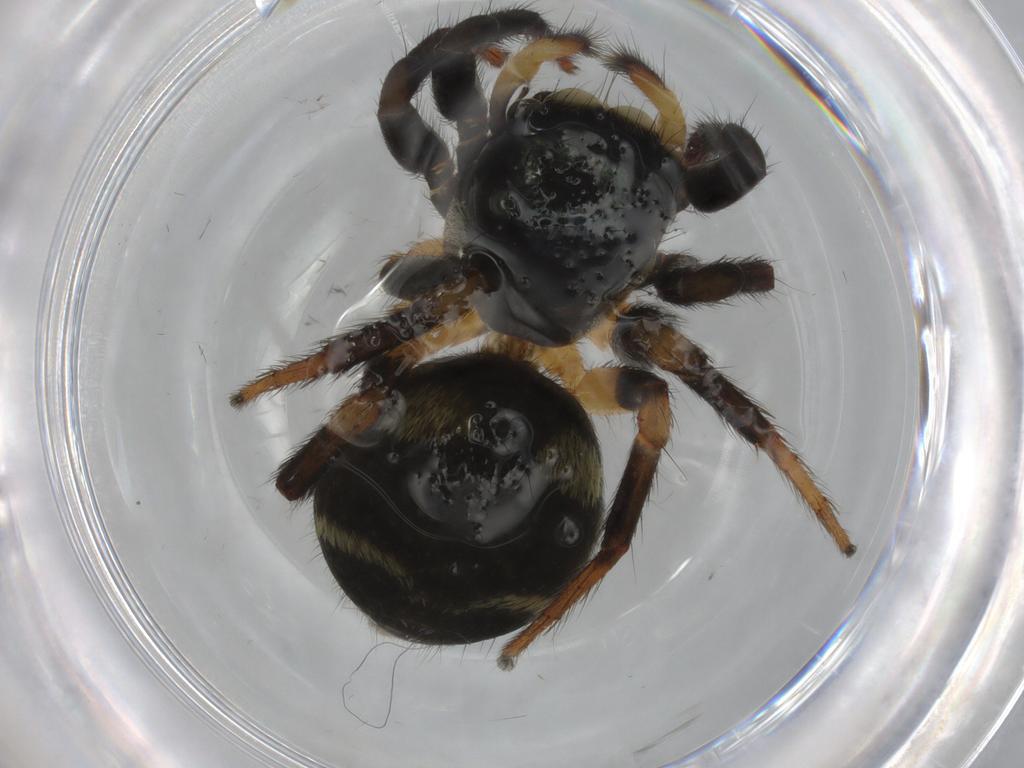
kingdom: Animalia
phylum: Arthropoda
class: Arachnida
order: Araneae
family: Salticidae
